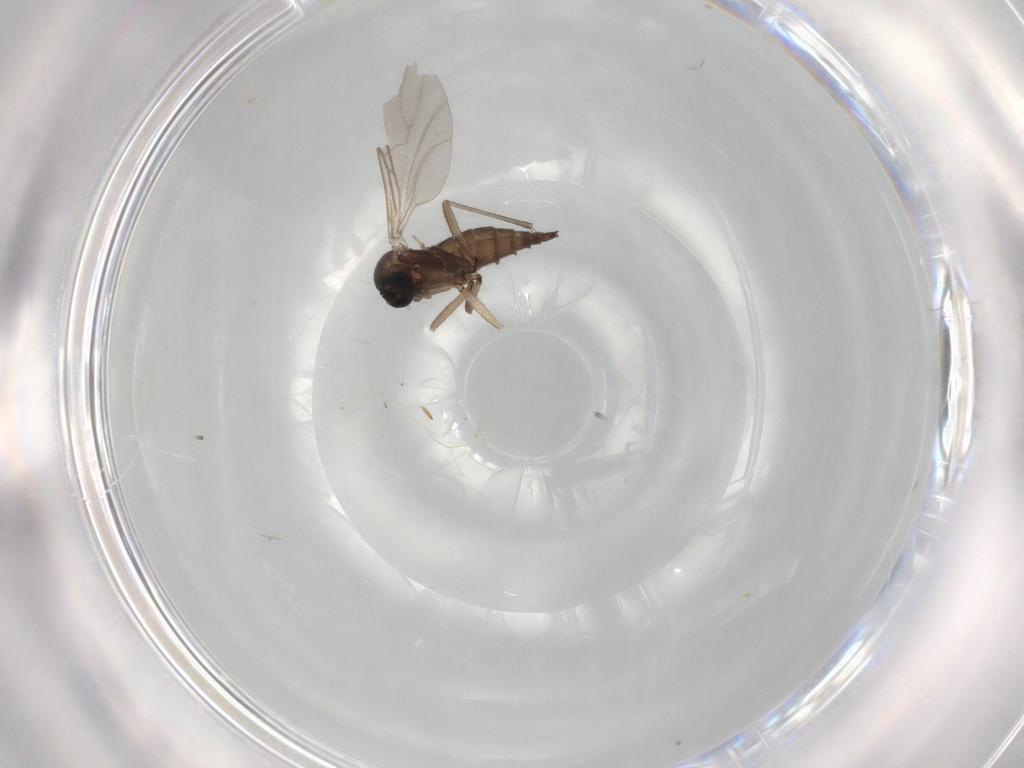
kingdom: Animalia
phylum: Arthropoda
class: Insecta
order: Diptera
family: Sciaridae
